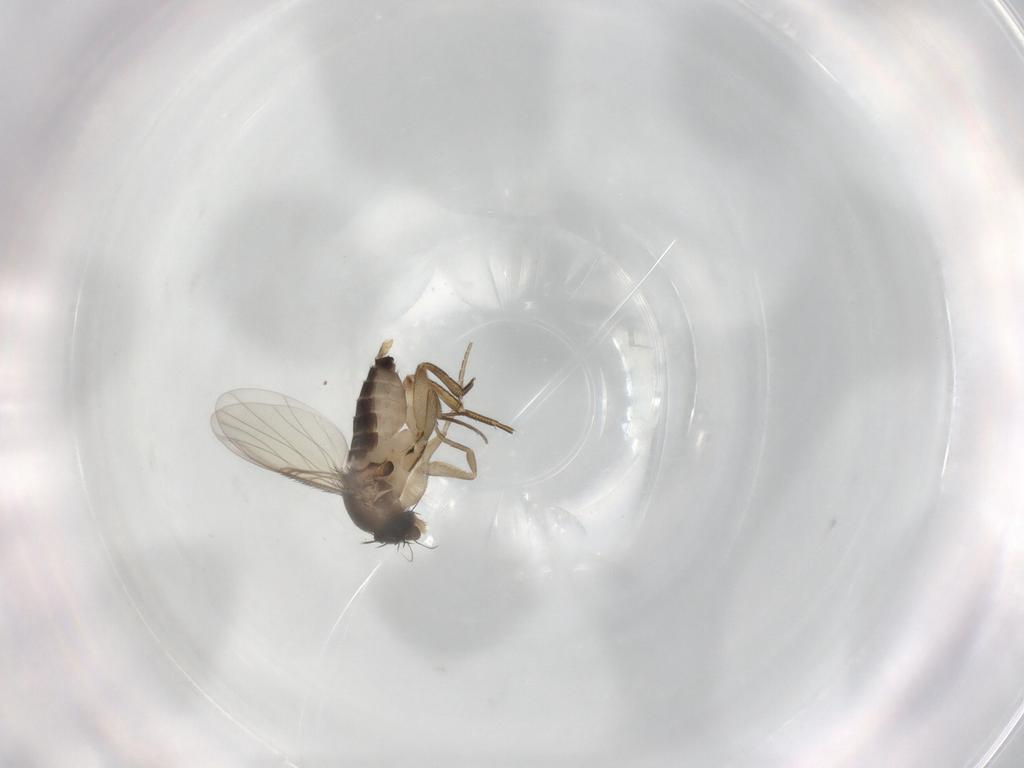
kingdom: Animalia
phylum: Arthropoda
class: Insecta
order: Diptera
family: Phoridae
